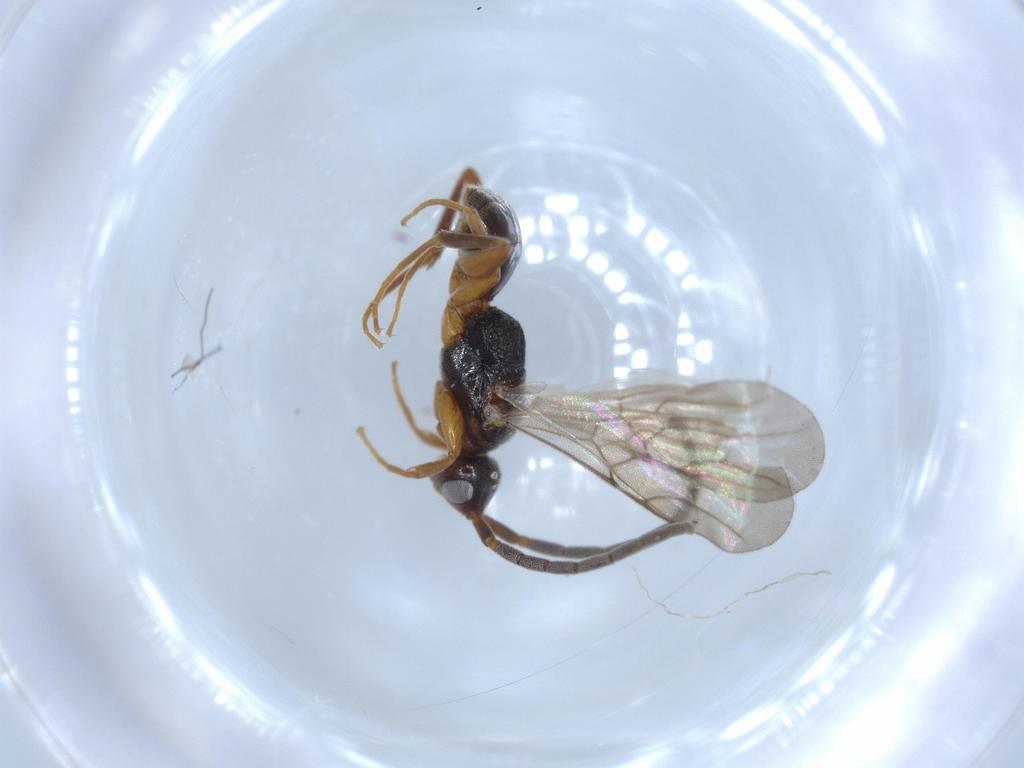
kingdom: Animalia
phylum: Arthropoda
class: Insecta
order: Hymenoptera
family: Embolemidae
